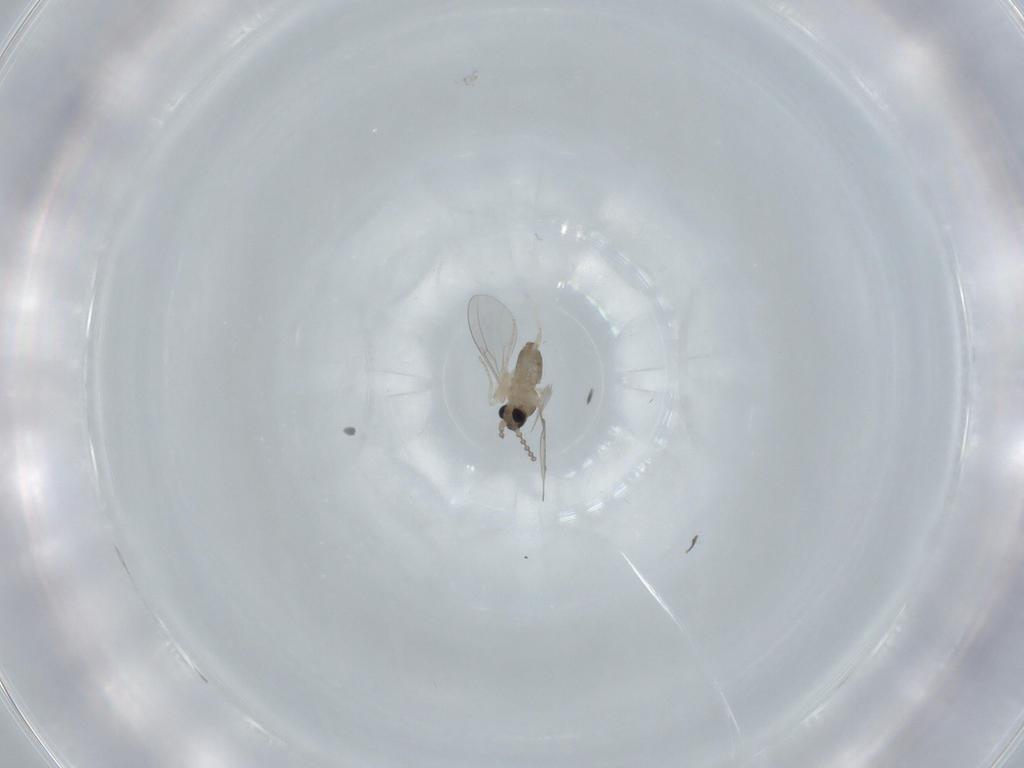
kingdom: Animalia
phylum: Arthropoda
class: Insecta
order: Diptera
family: Cecidomyiidae
